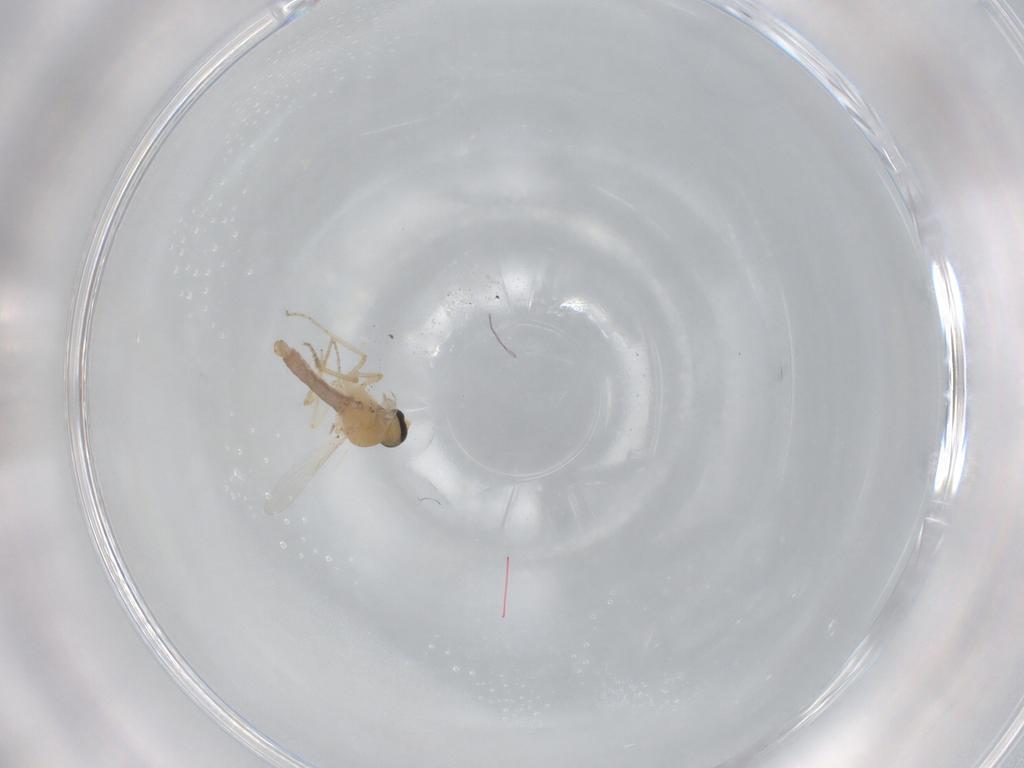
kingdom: Animalia
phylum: Arthropoda
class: Insecta
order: Diptera
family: Ceratopogonidae
